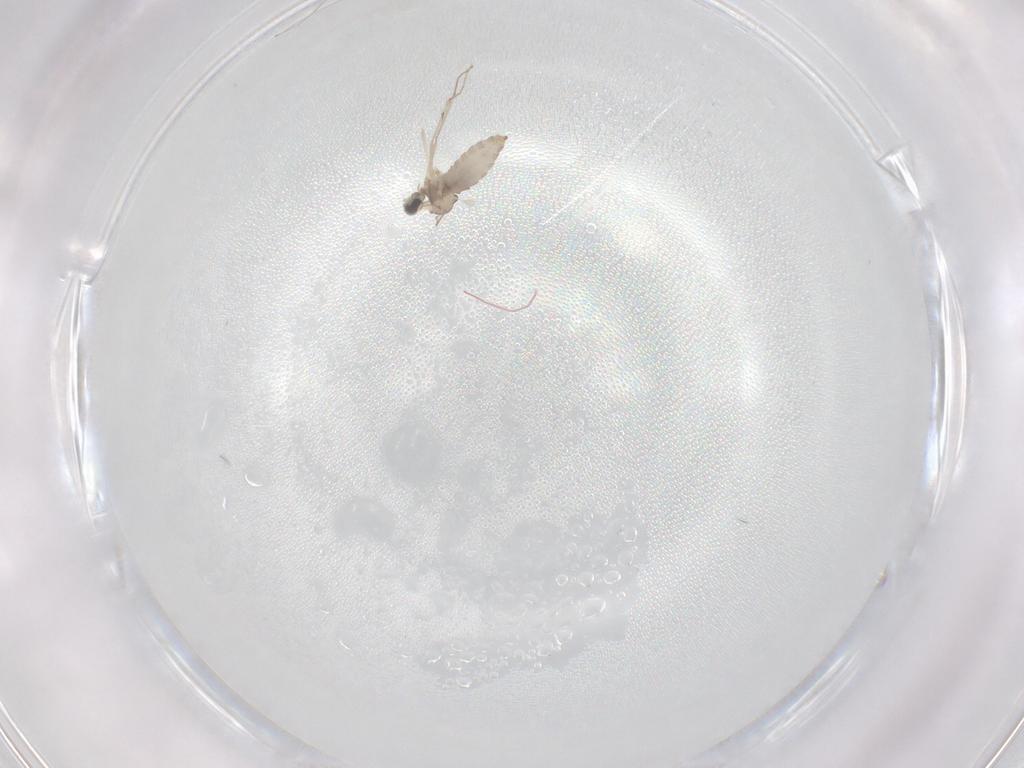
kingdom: Animalia
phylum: Arthropoda
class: Insecta
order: Diptera
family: Cecidomyiidae
